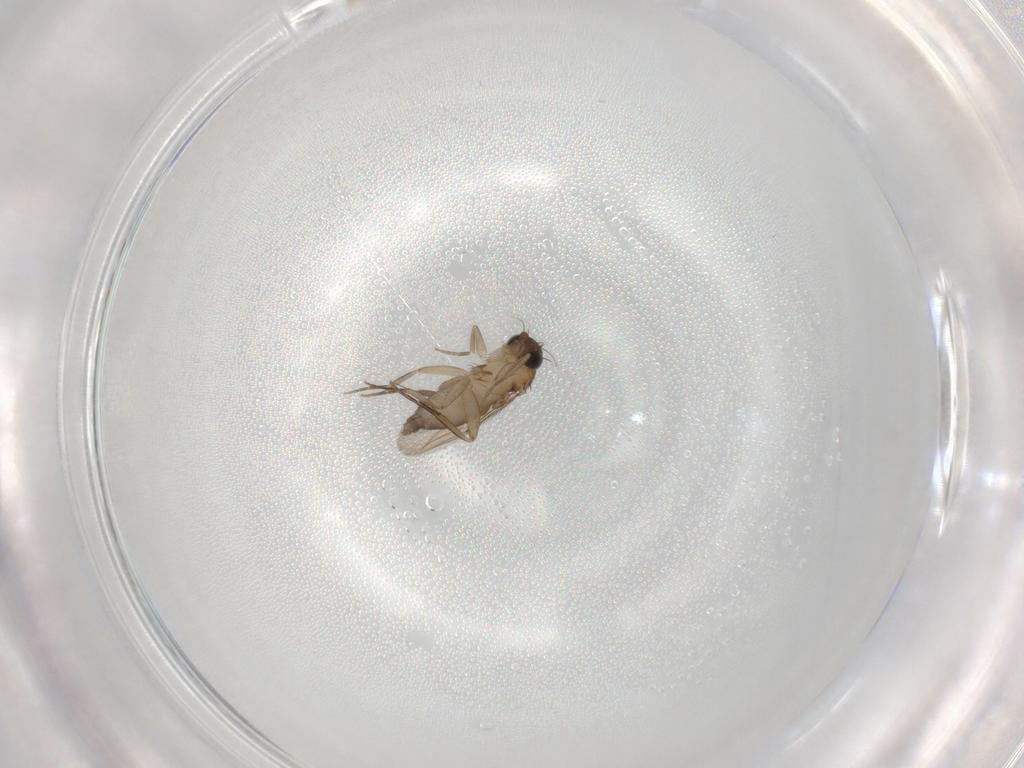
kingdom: Animalia
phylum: Arthropoda
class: Insecta
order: Diptera
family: Phoridae
